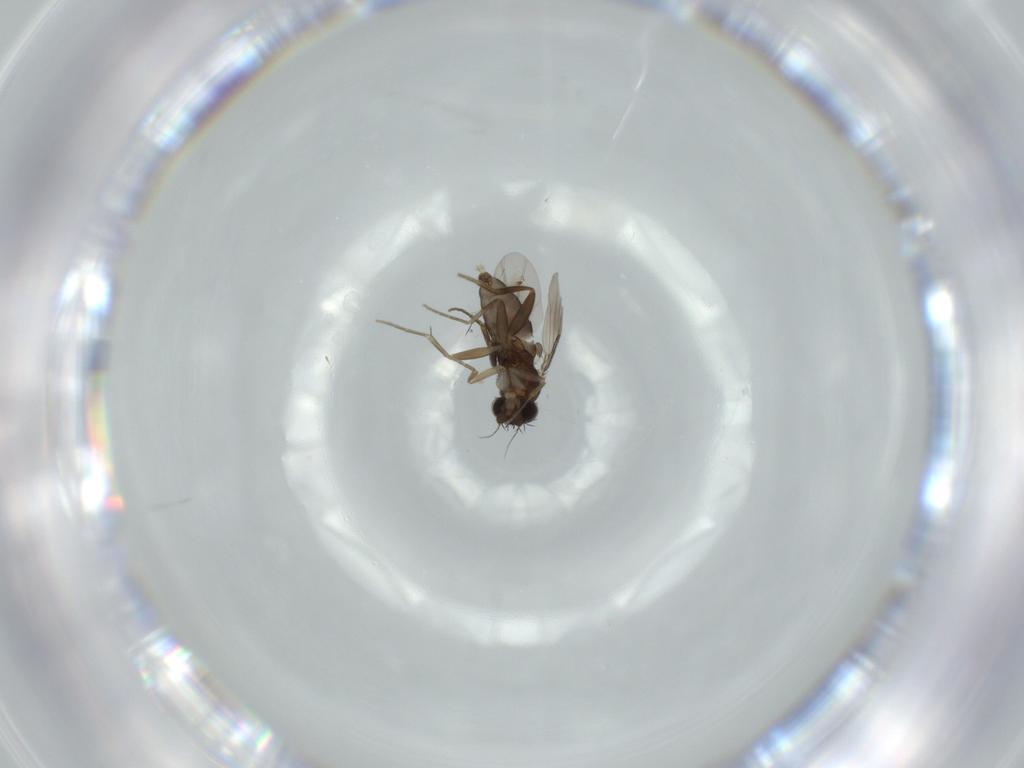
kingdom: Animalia
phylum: Arthropoda
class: Insecta
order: Diptera
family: Phoridae
